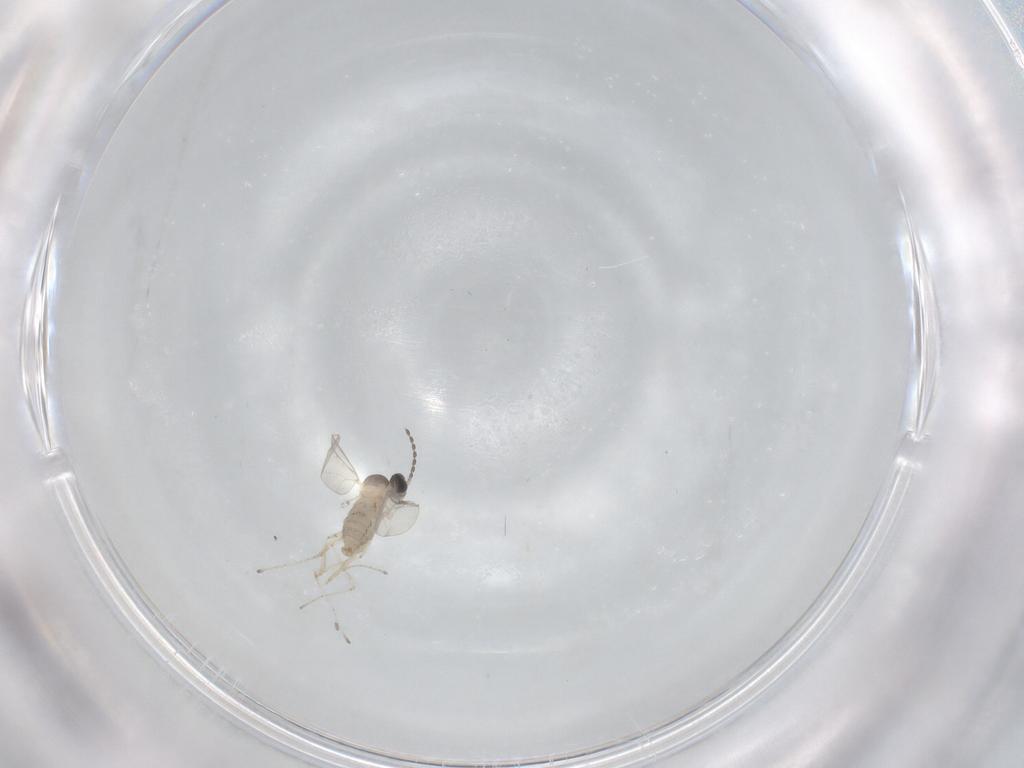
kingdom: Animalia
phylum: Arthropoda
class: Insecta
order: Diptera
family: Cecidomyiidae
